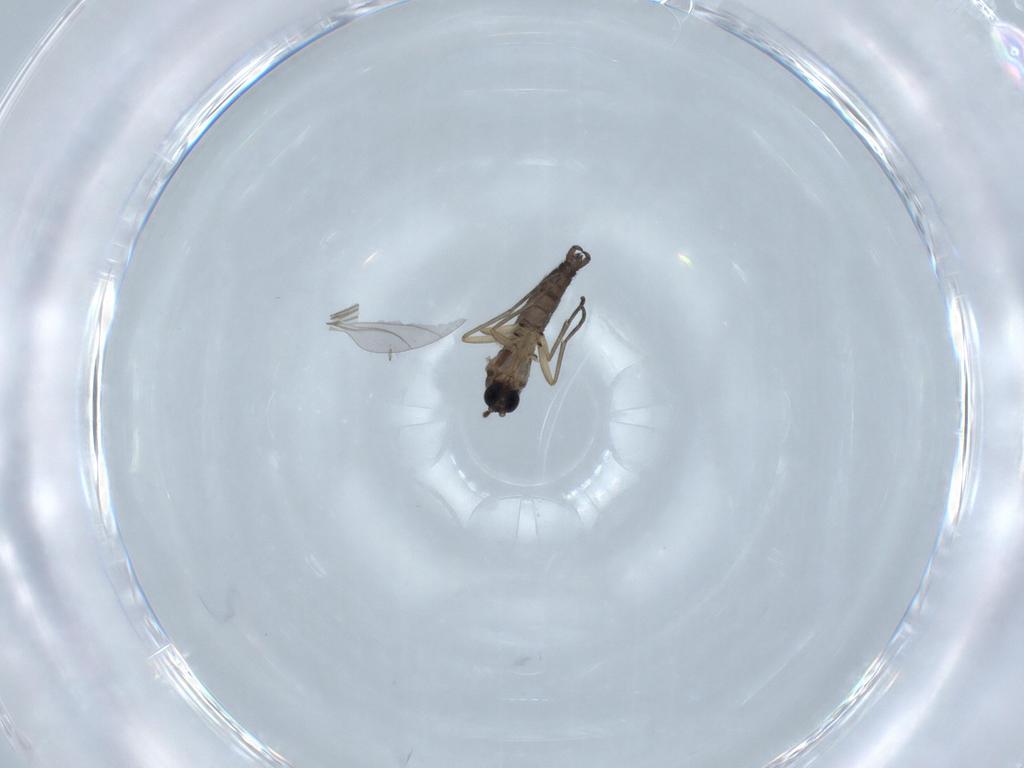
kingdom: Animalia
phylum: Arthropoda
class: Insecta
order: Diptera
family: Sciaridae
